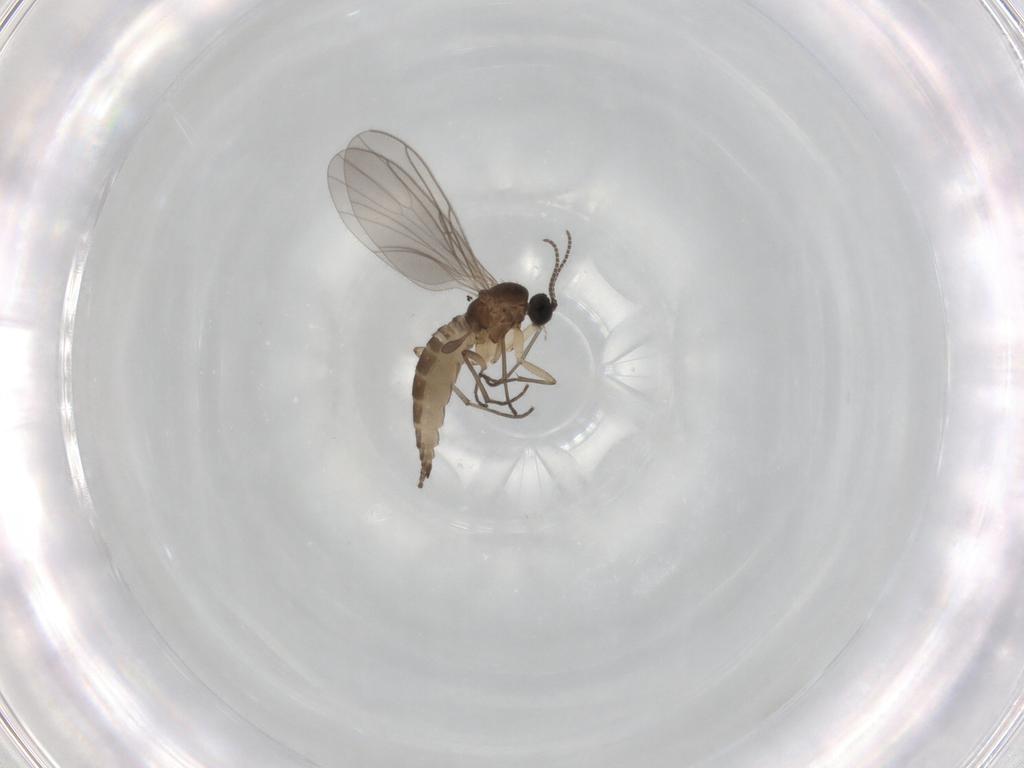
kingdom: Animalia
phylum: Arthropoda
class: Insecta
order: Diptera
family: Sciaridae
